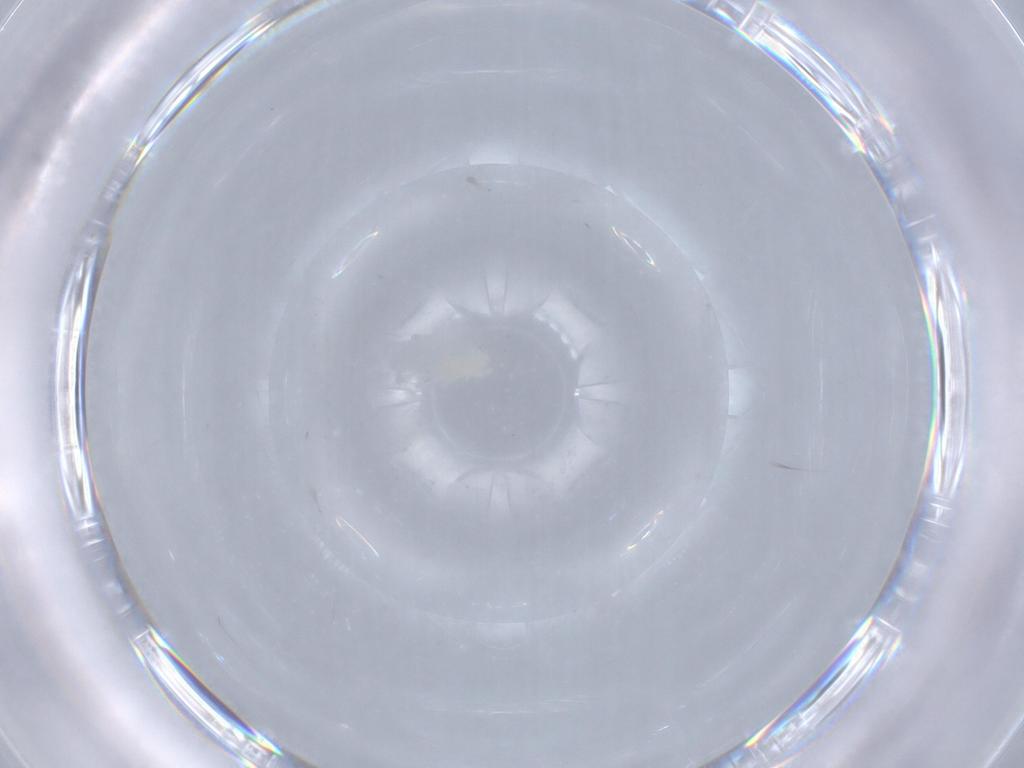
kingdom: Animalia
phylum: Arthropoda
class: Arachnida
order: Trombidiformes
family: Eupodidae
